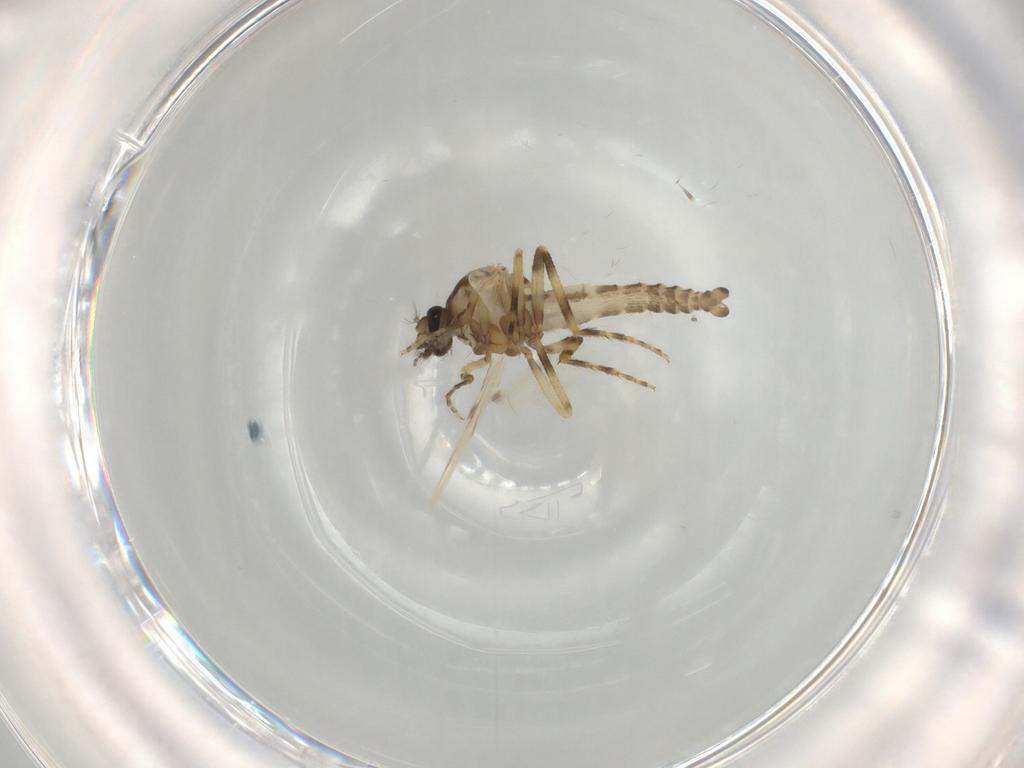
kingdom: Animalia
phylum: Arthropoda
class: Insecta
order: Diptera
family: Ceratopogonidae
